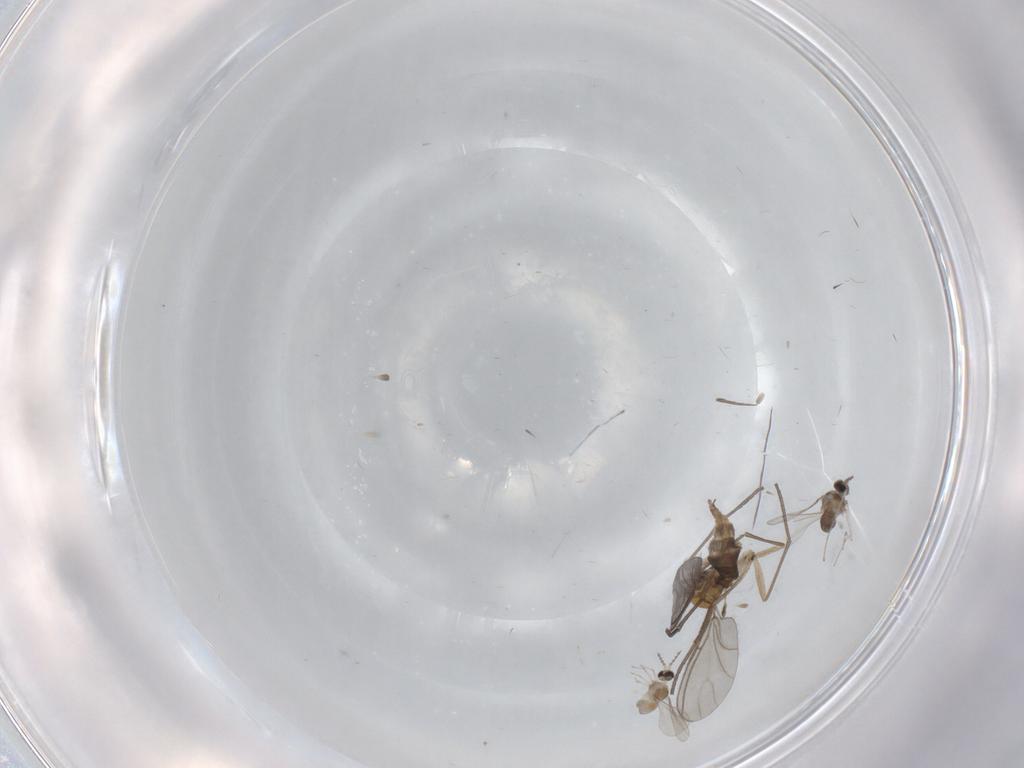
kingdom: Animalia
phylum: Arthropoda
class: Insecta
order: Diptera
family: Sciaridae
